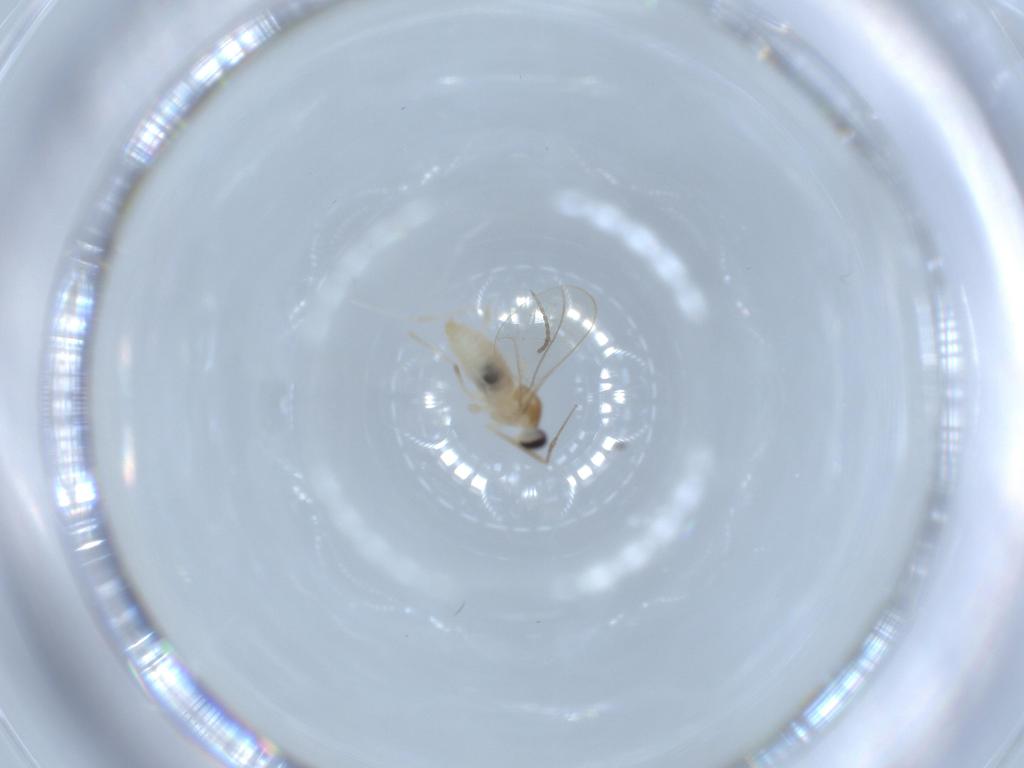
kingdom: Animalia
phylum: Arthropoda
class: Insecta
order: Diptera
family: Cecidomyiidae
